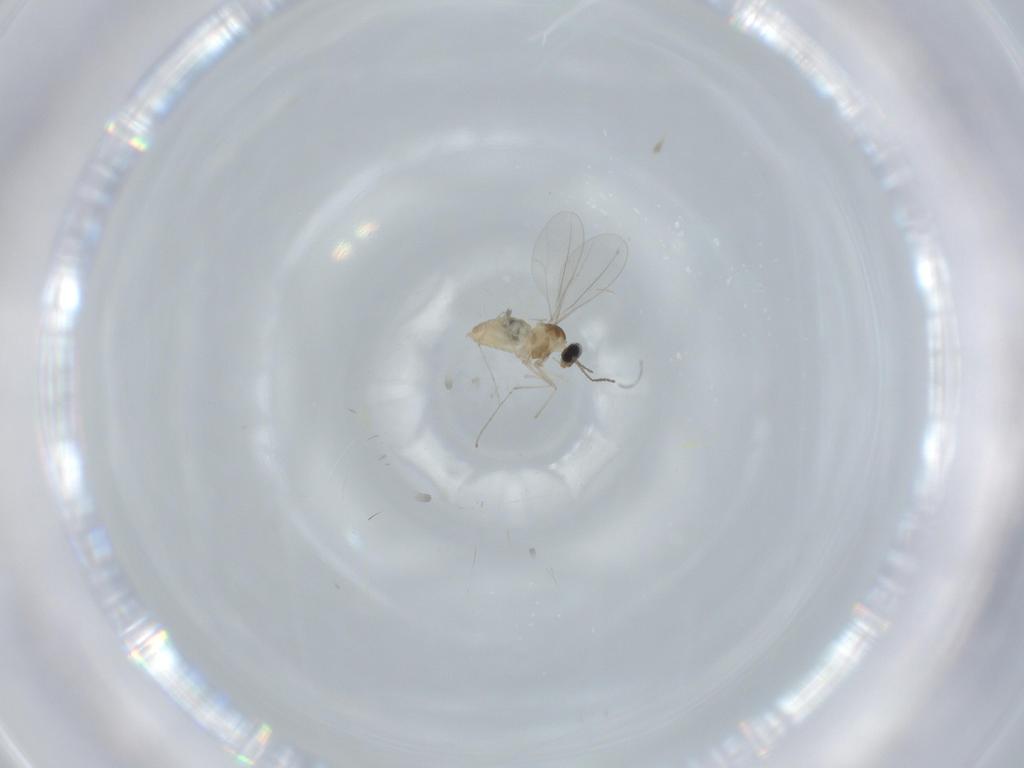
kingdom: Animalia
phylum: Arthropoda
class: Insecta
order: Diptera
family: Cecidomyiidae
